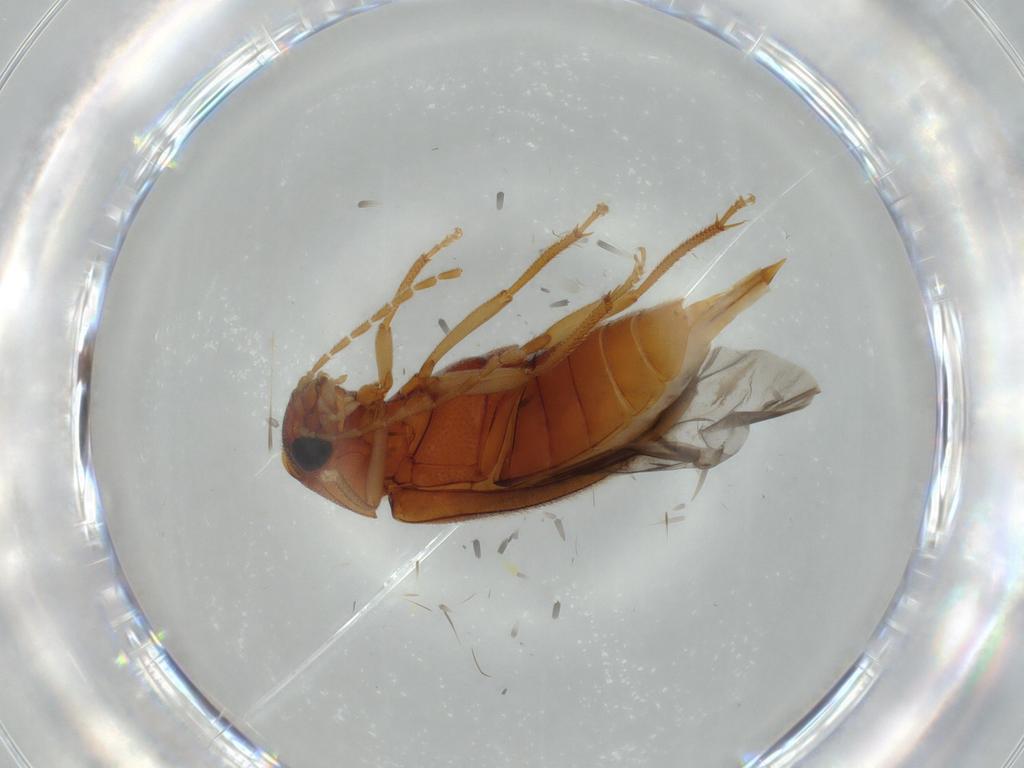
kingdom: Animalia
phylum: Arthropoda
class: Insecta
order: Coleoptera
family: Ptilodactylidae
